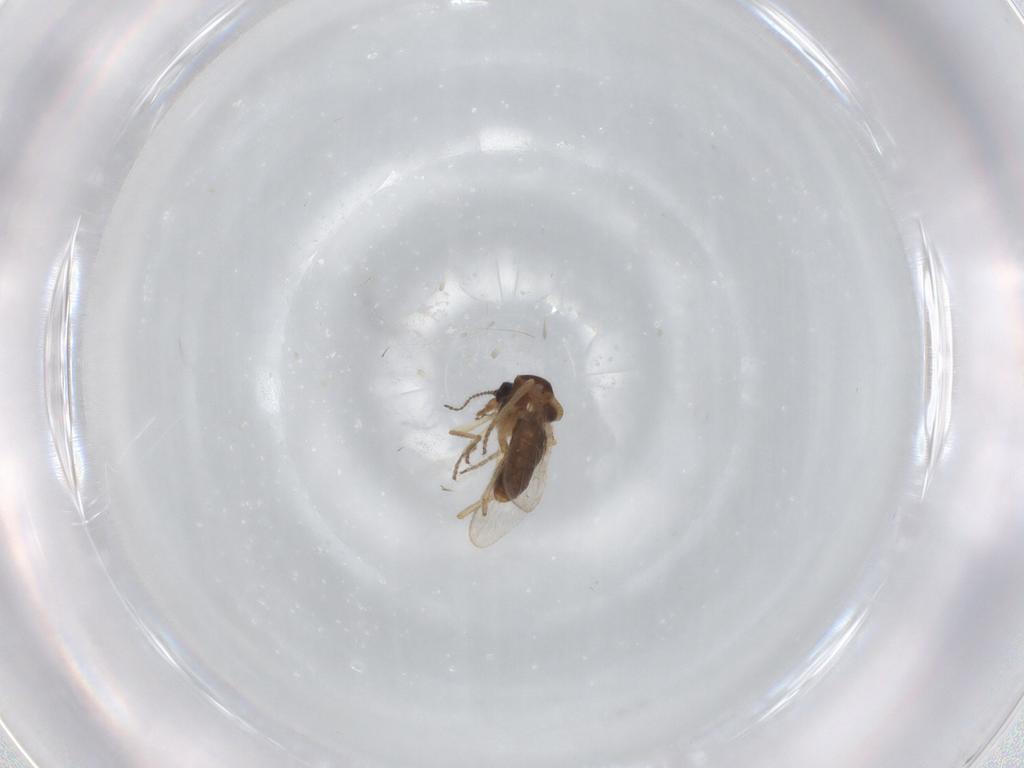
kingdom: Animalia
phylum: Arthropoda
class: Insecta
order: Diptera
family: Ceratopogonidae
